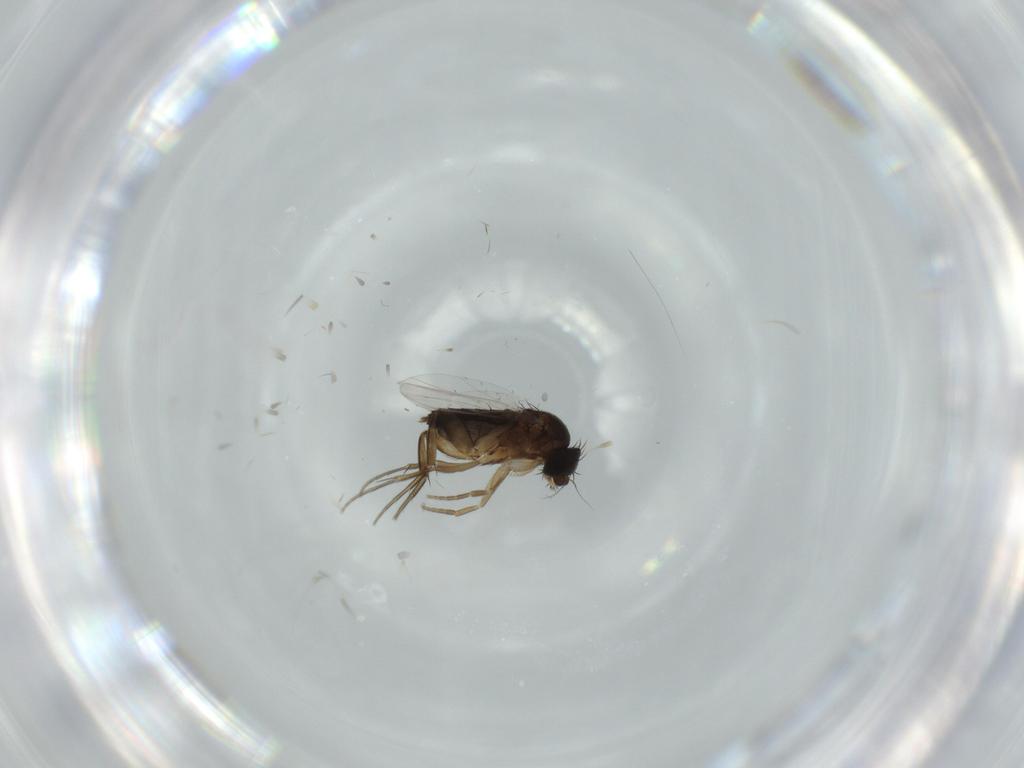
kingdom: Animalia
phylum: Arthropoda
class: Insecta
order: Diptera
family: Phoridae
